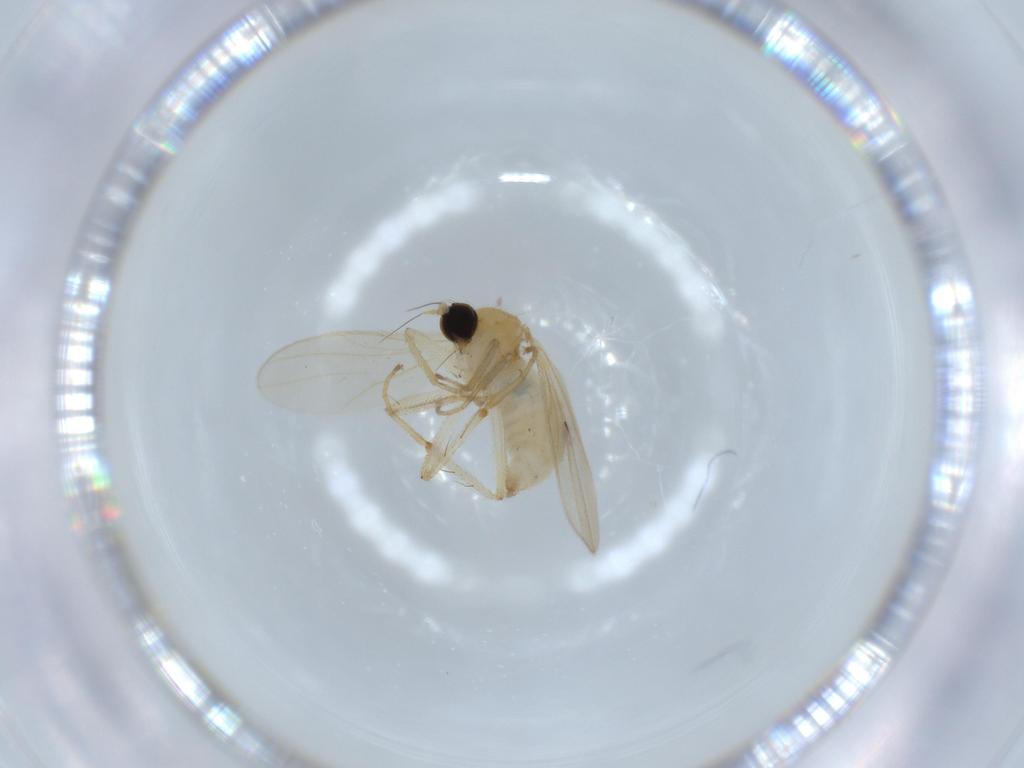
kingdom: Animalia
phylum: Arthropoda
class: Insecta
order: Diptera
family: Hybotidae
